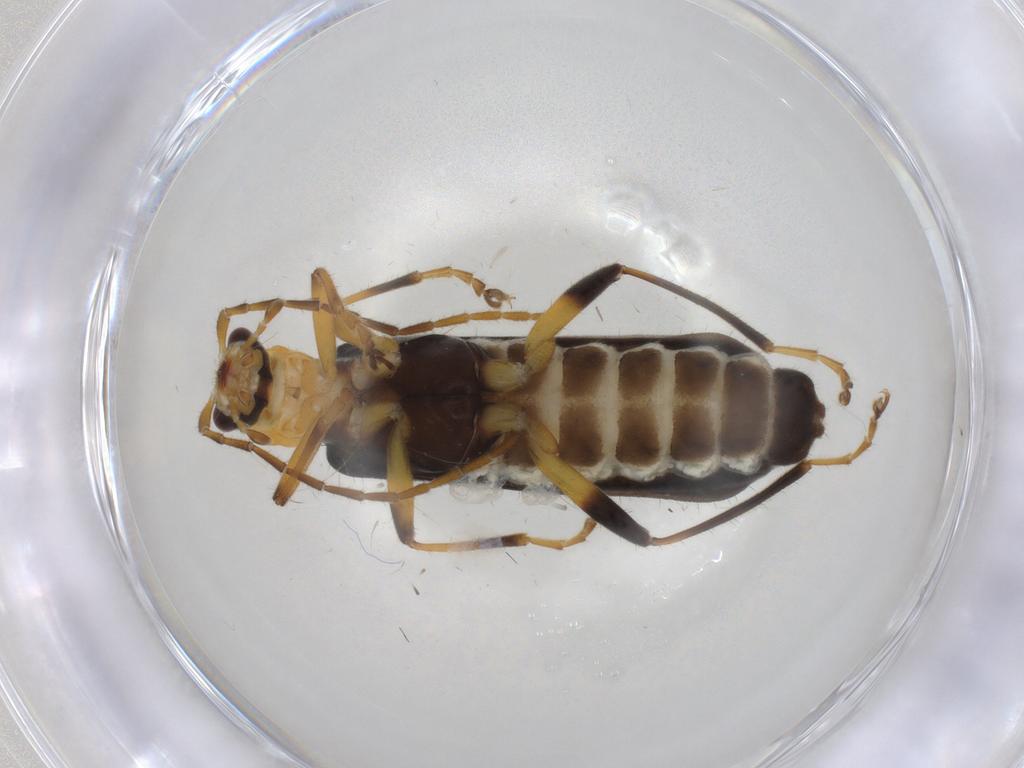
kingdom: Animalia
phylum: Arthropoda
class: Insecta
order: Coleoptera
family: Cantharidae
